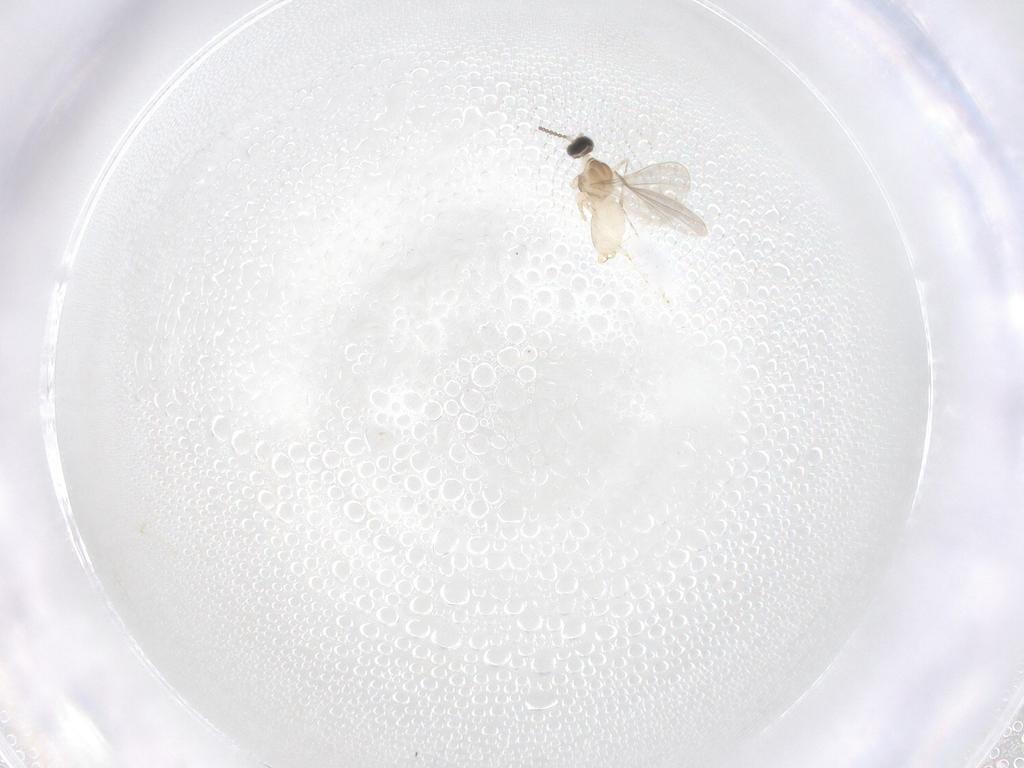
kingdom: Animalia
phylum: Arthropoda
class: Insecta
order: Diptera
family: Cecidomyiidae
